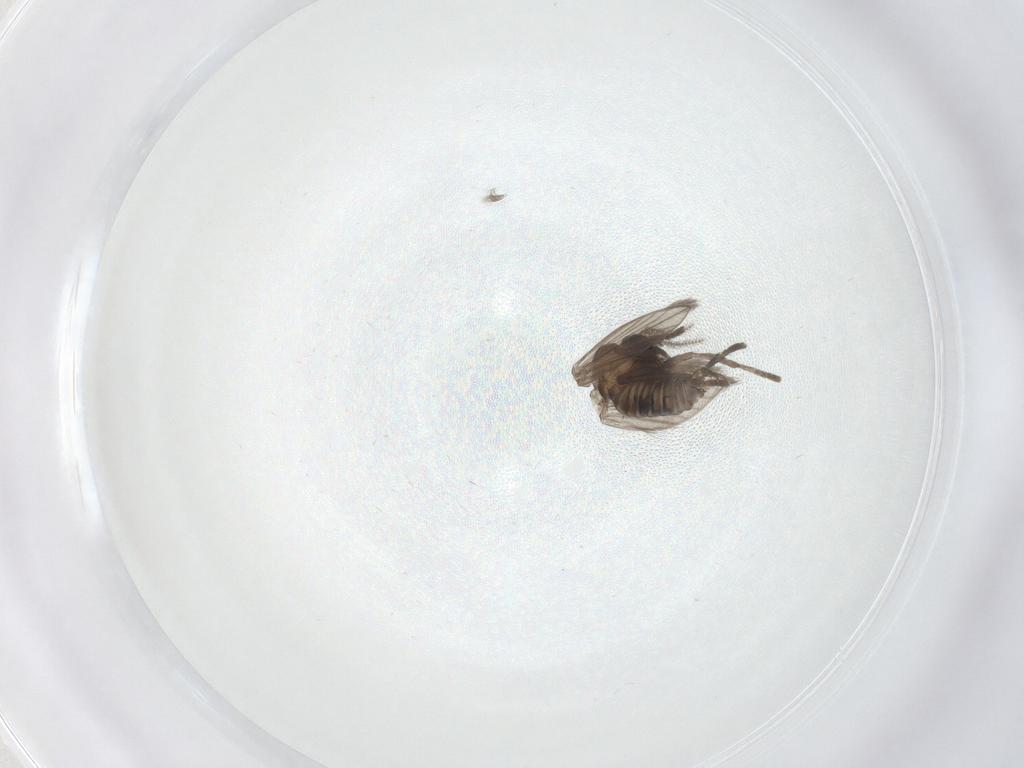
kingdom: Animalia
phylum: Arthropoda
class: Insecta
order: Diptera
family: Psychodidae
